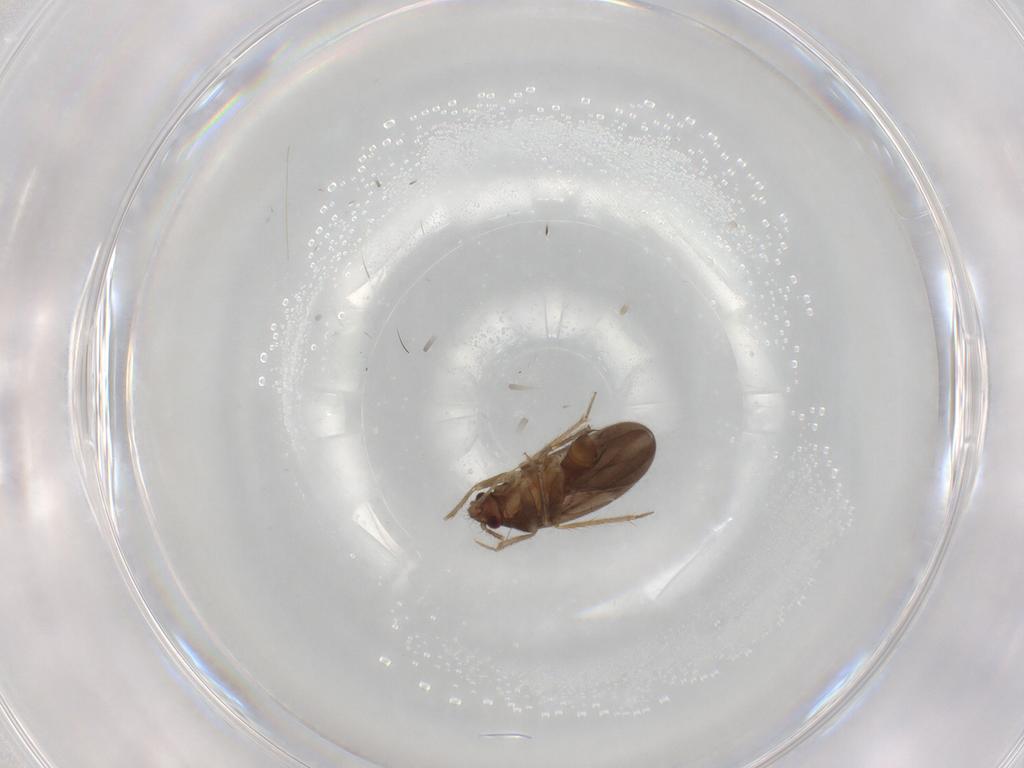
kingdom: Animalia
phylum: Arthropoda
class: Insecta
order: Hemiptera
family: Ceratocombidae
